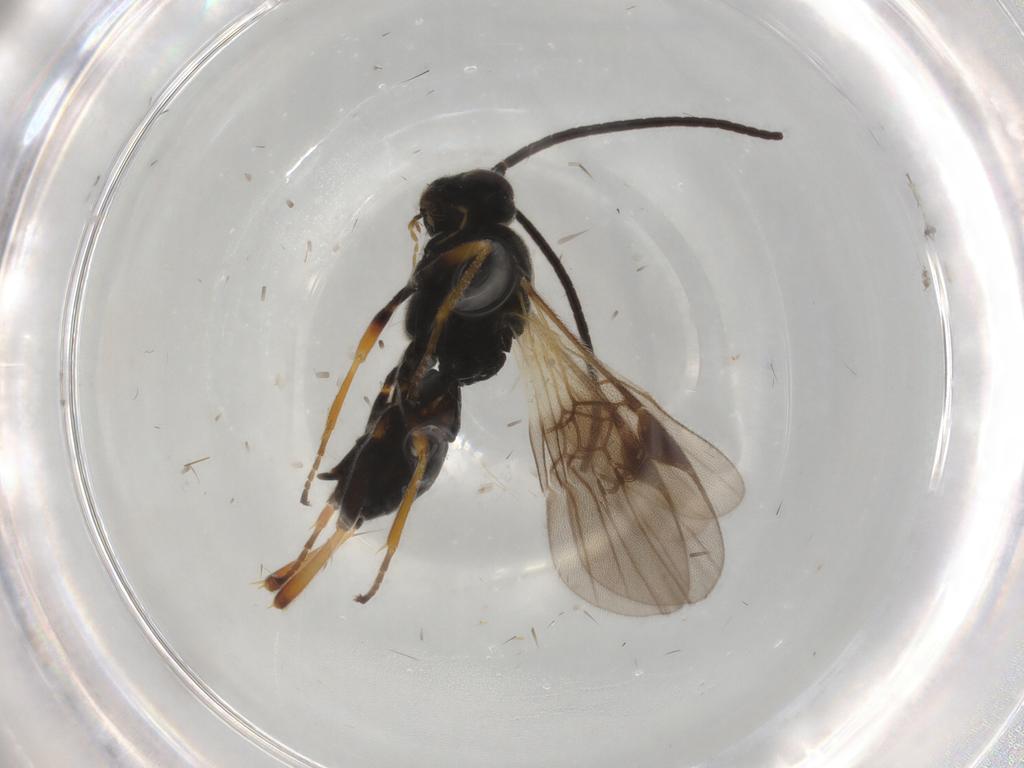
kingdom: Animalia
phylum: Arthropoda
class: Insecta
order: Hymenoptera
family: Braconidae
